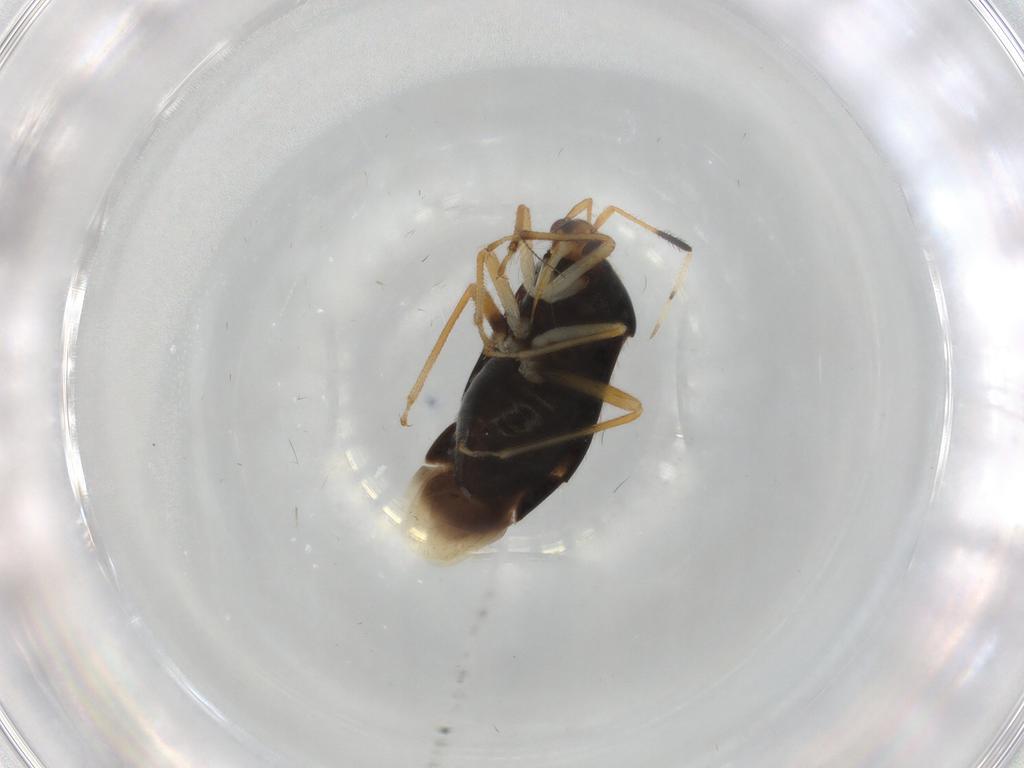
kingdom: Animalia
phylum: Arthropoda
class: Insecta
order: Hemiptera
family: Miridae
